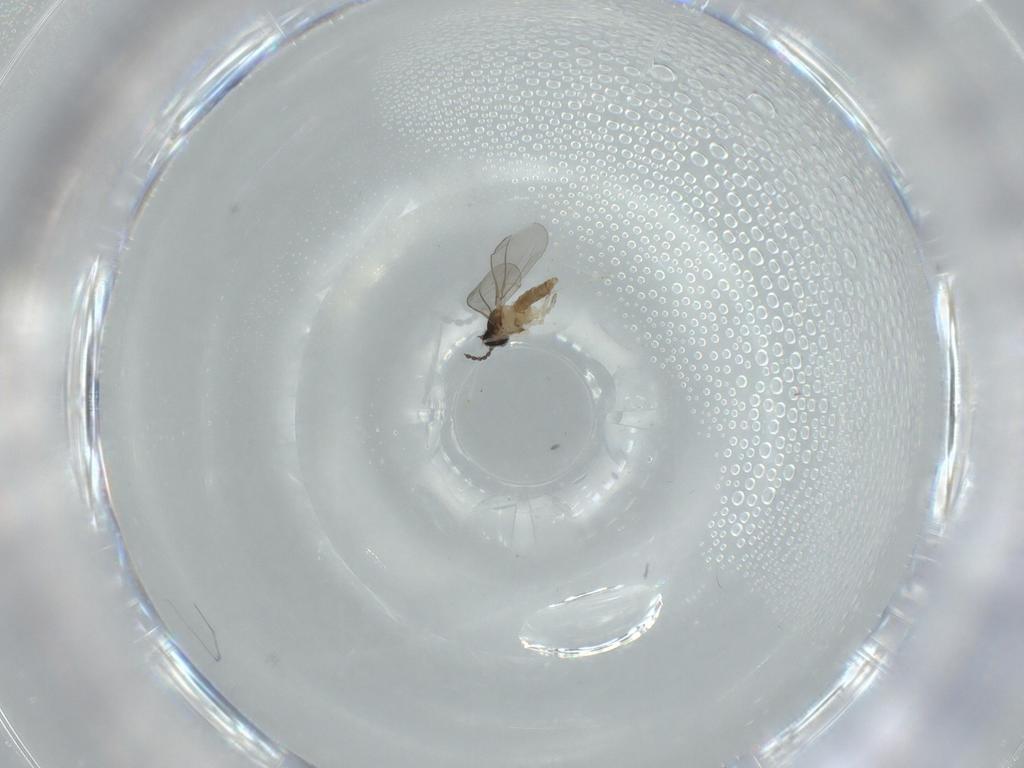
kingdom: Animalia
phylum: Arthropoda
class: Insecta
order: Diptera
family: Cecidomyiidae
